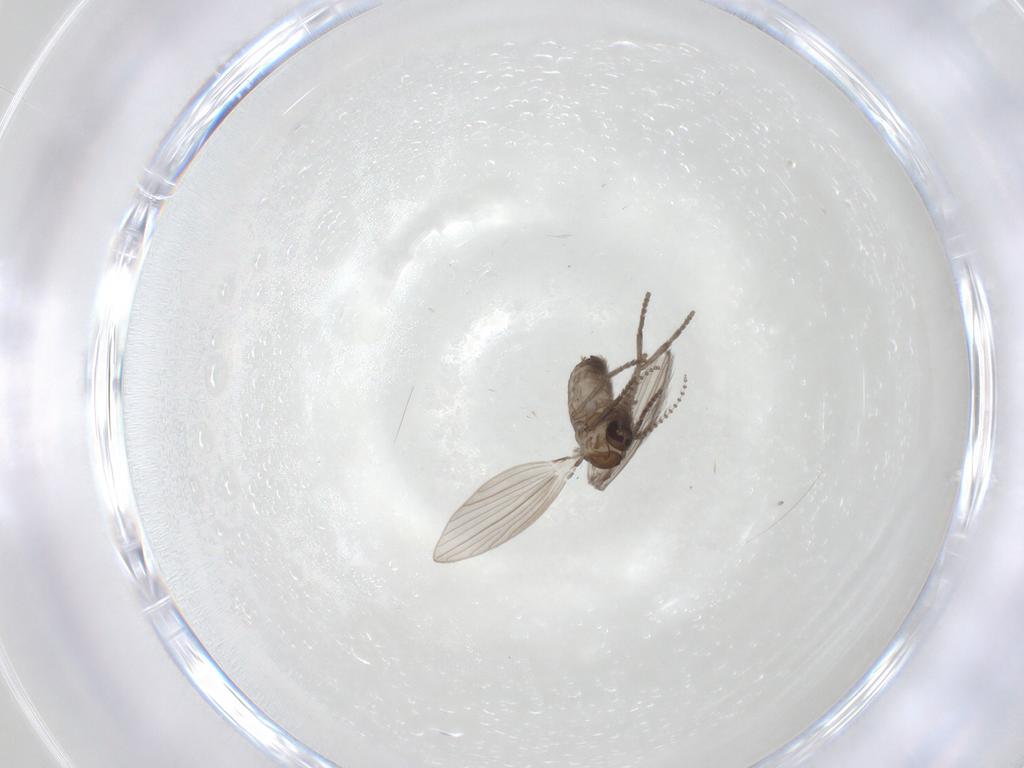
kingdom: Animalia
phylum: Arthropoda
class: Insecta
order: Diptera
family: Psychodidae
